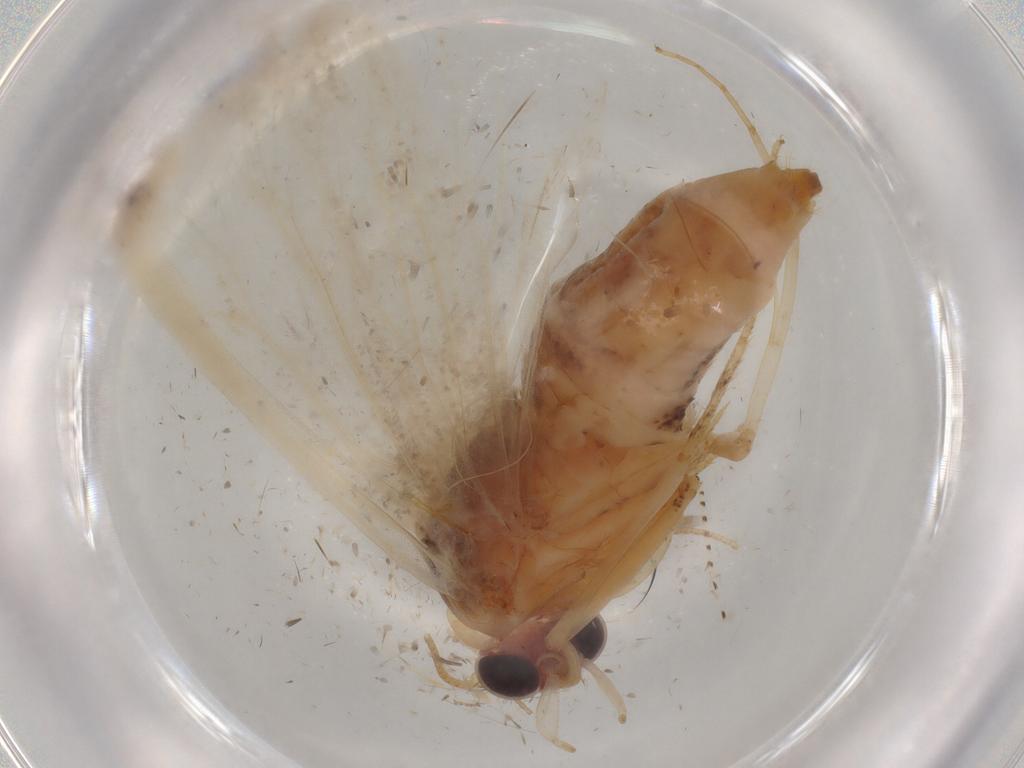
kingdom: Animalia
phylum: Arthropoda
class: Insecta
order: Lepidoptera
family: Nolidae
